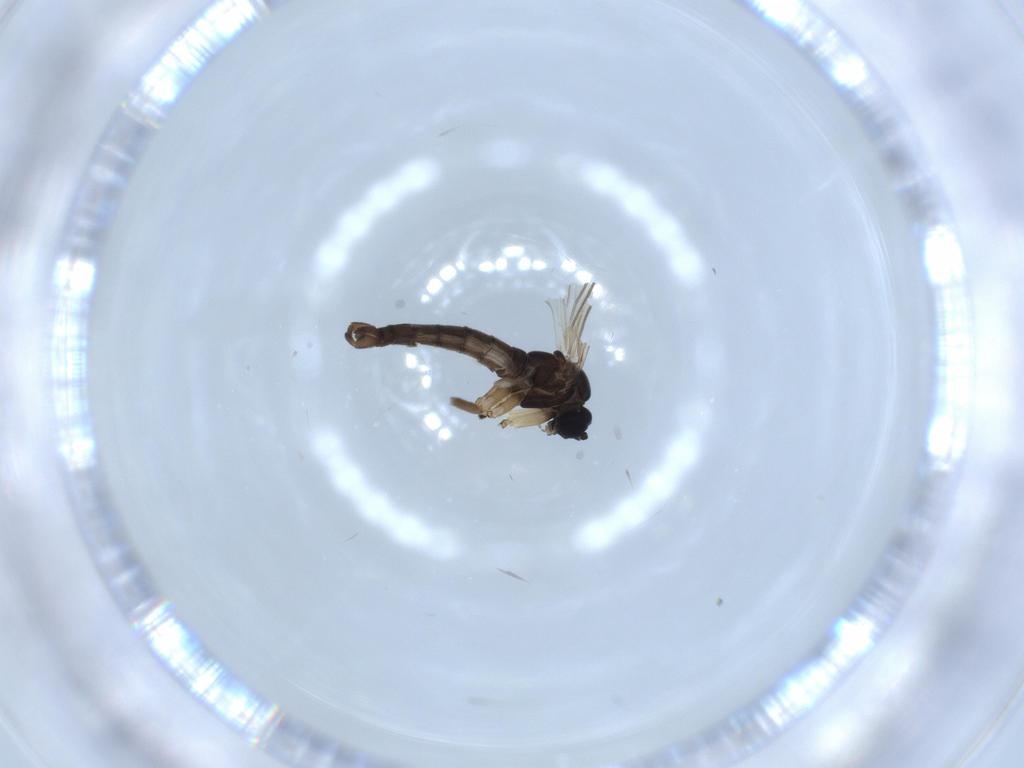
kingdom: Animalia
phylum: Arthropoda
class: Insecta
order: Diptera
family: Sciaridae
